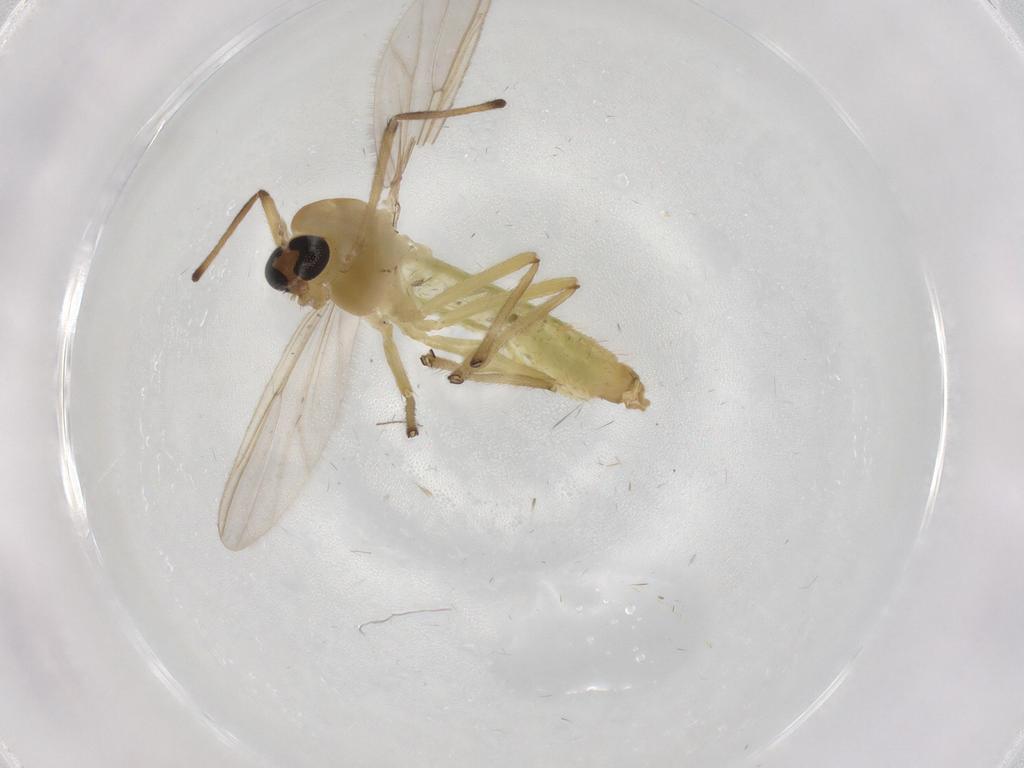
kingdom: Animalia
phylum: Arthropoda
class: Insecta
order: Diptera
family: Chironomidae
